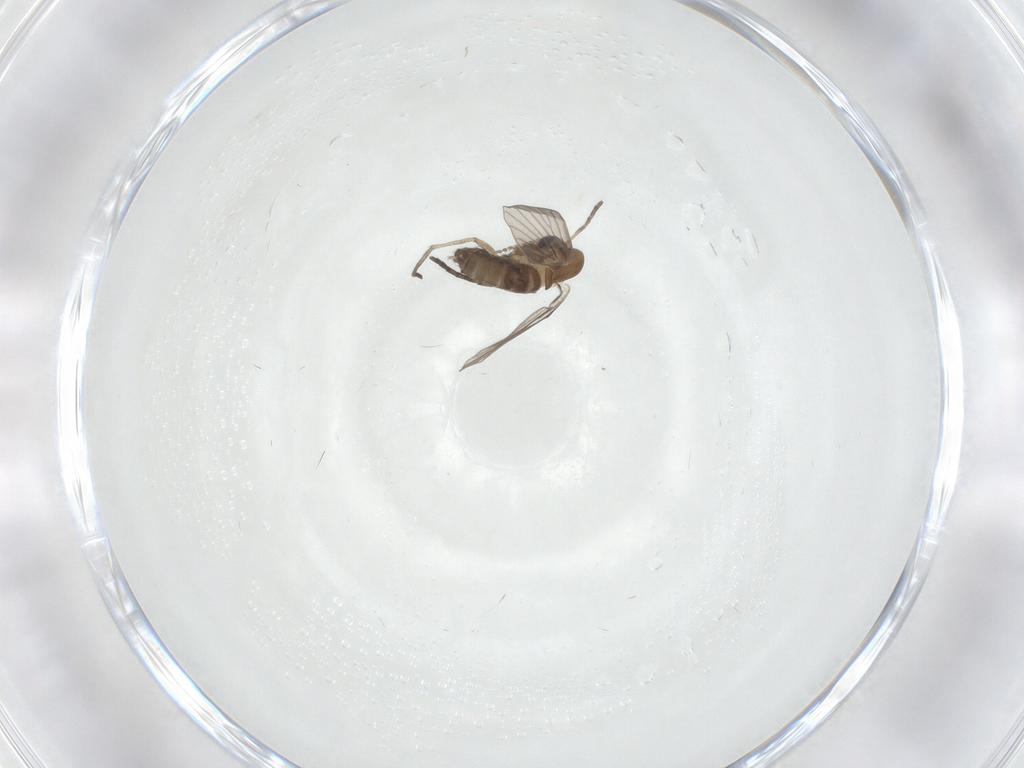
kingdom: Animalia
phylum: Arthropoda
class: Insecta
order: Diptera
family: Psychodidae
